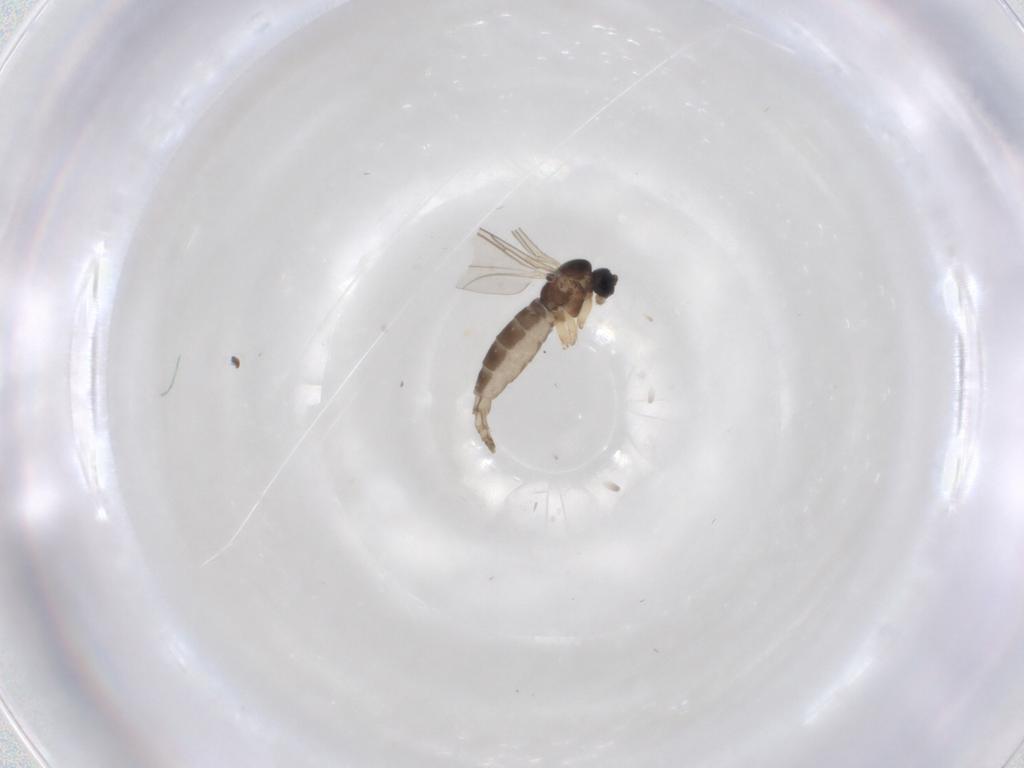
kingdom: Animalia
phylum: Arthropoda
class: Insecta
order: Diptera
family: Sciaridae
